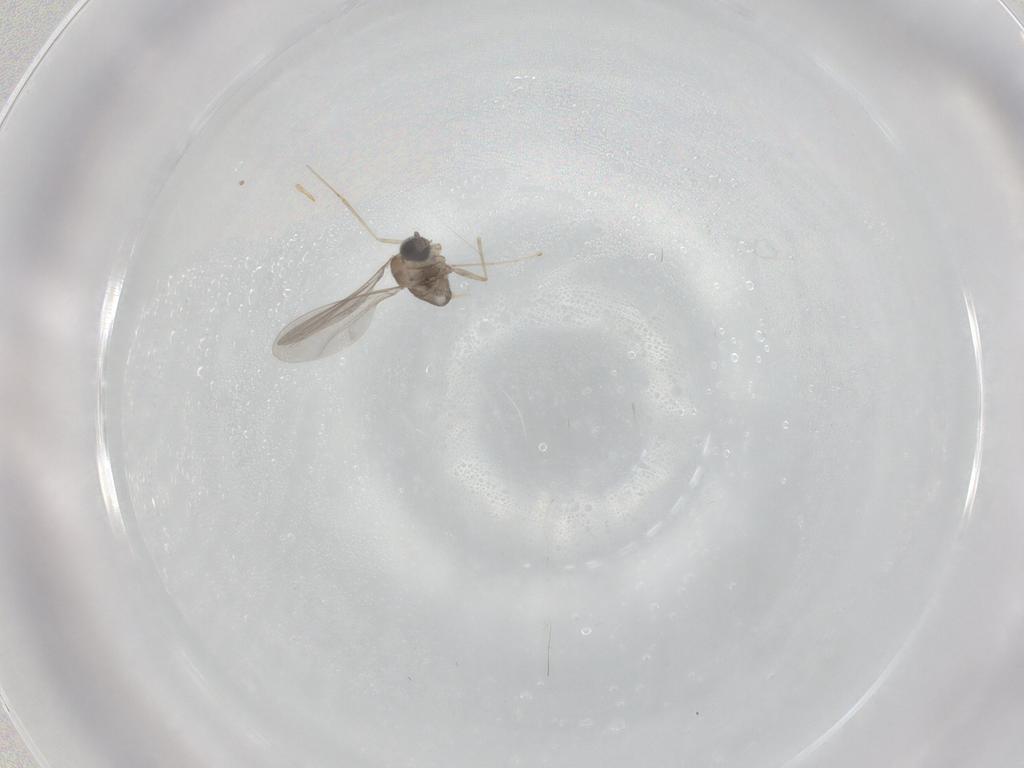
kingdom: Animalia
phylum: Arthropoda
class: Insecta
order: Diptera
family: Cecidomyiidae
